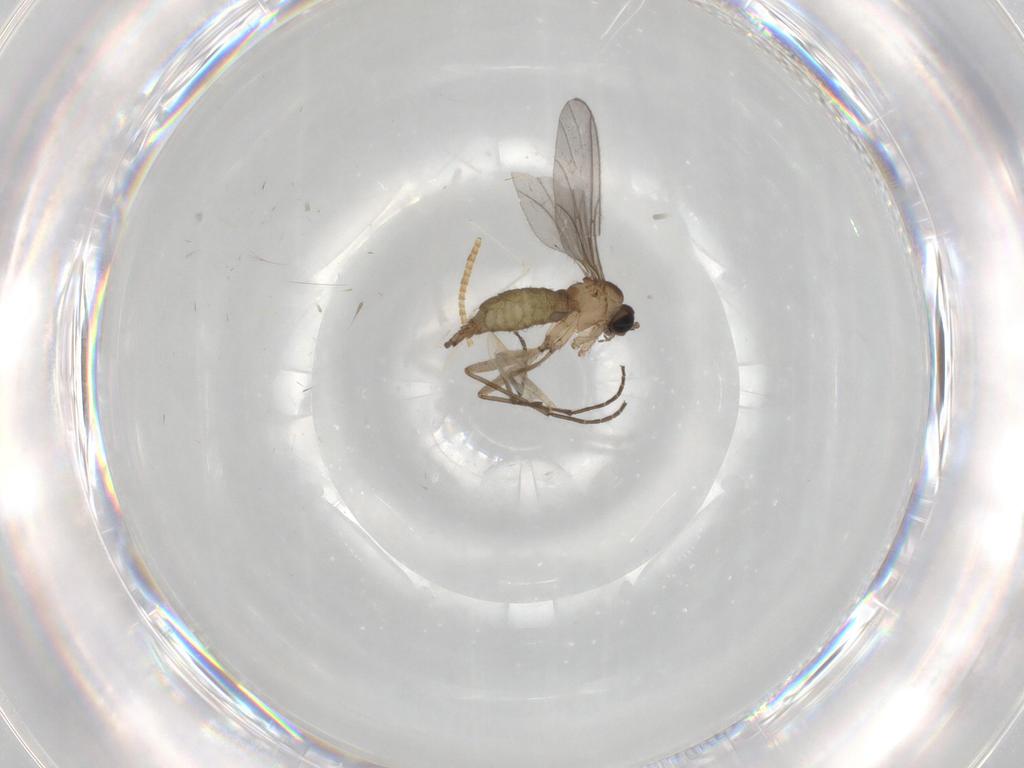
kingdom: Animalia
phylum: Arthropoda
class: Insecta
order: Diptera
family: Sciaridae
